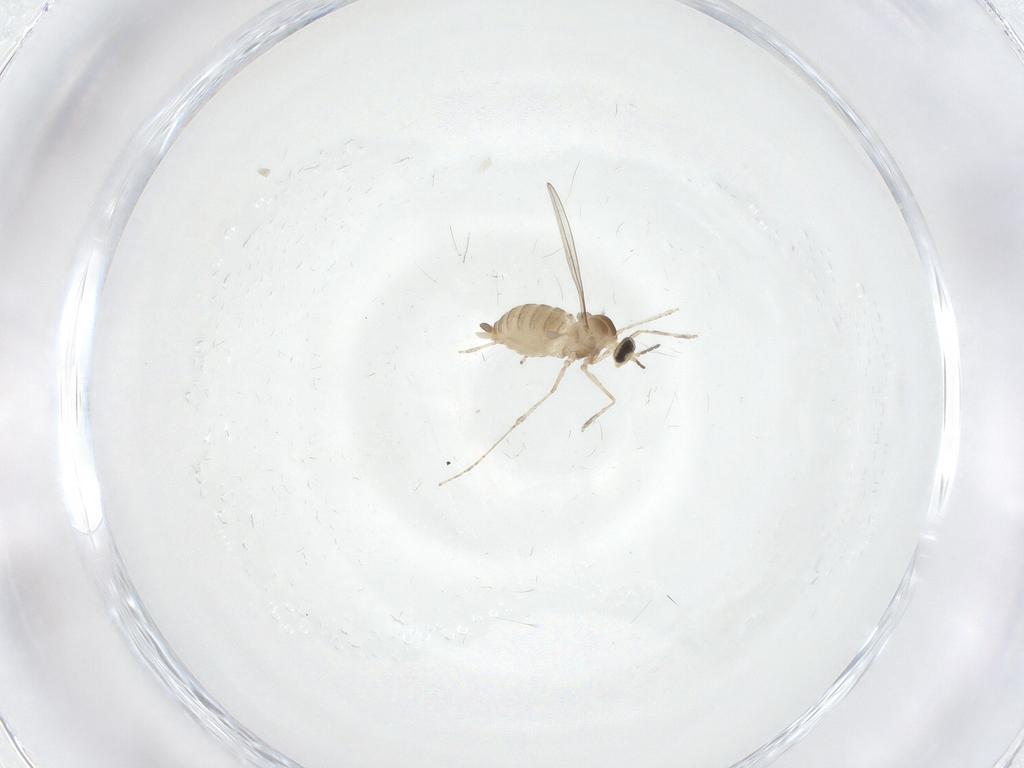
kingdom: Animalia
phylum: Arthropoda
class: Insecta
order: Diptera
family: Cecidomyiidae
